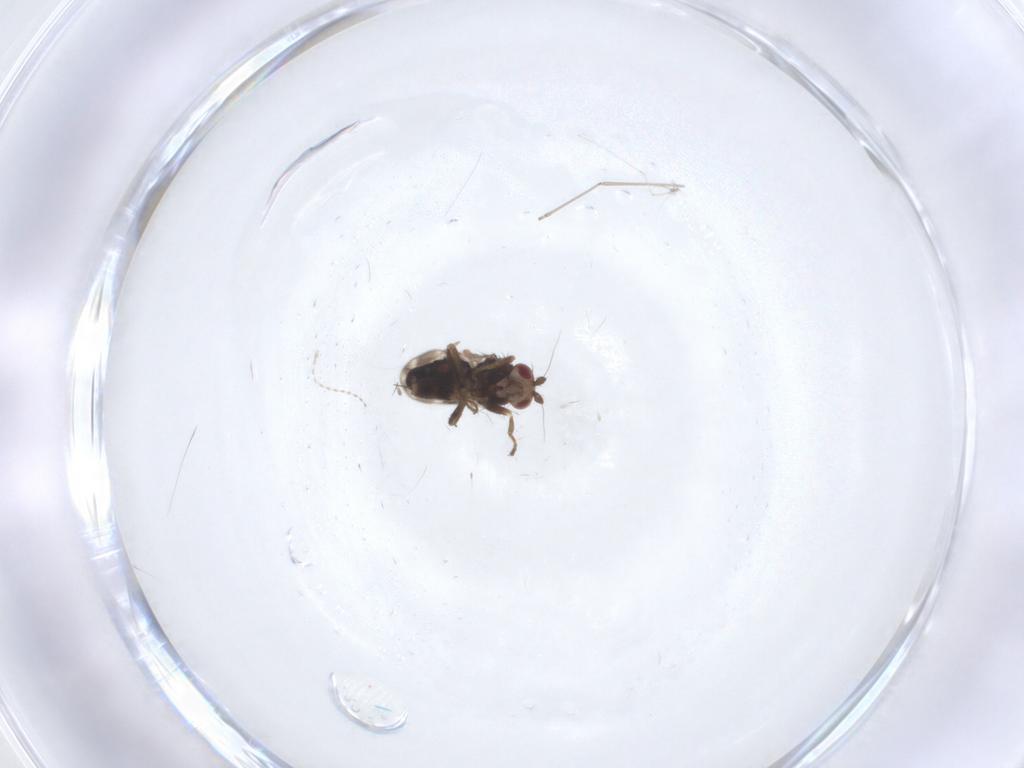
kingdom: Animalia
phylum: Arthropoda
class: Insecta
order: Diptera
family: Sphaeroceridae
